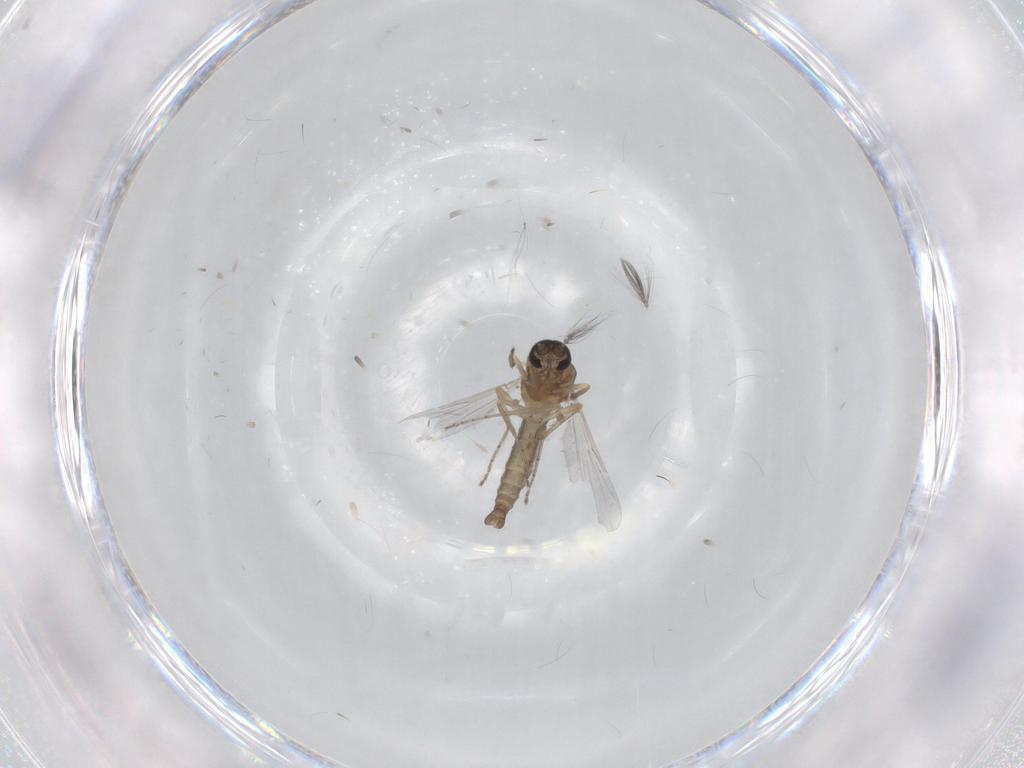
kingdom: Animalia
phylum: Arthropoda
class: Insecta
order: Diptera
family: Ceratopogonidae
